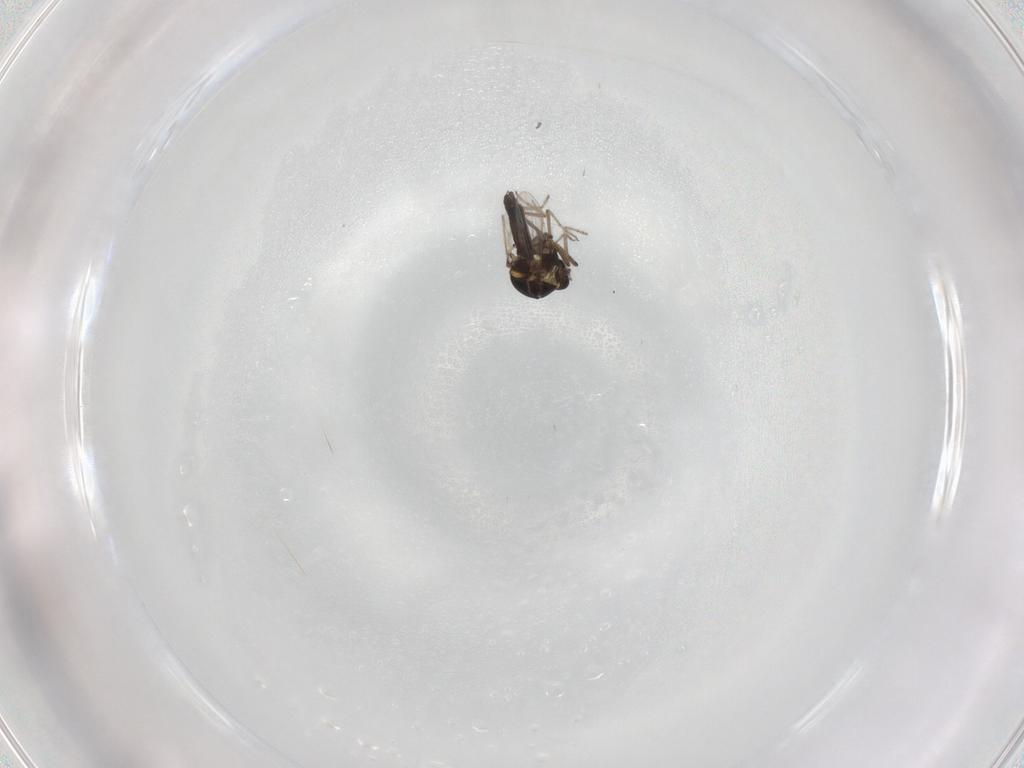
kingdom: Animalia
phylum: Arthropoda
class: Insecta
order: Diptera
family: Ceratopogonidae
